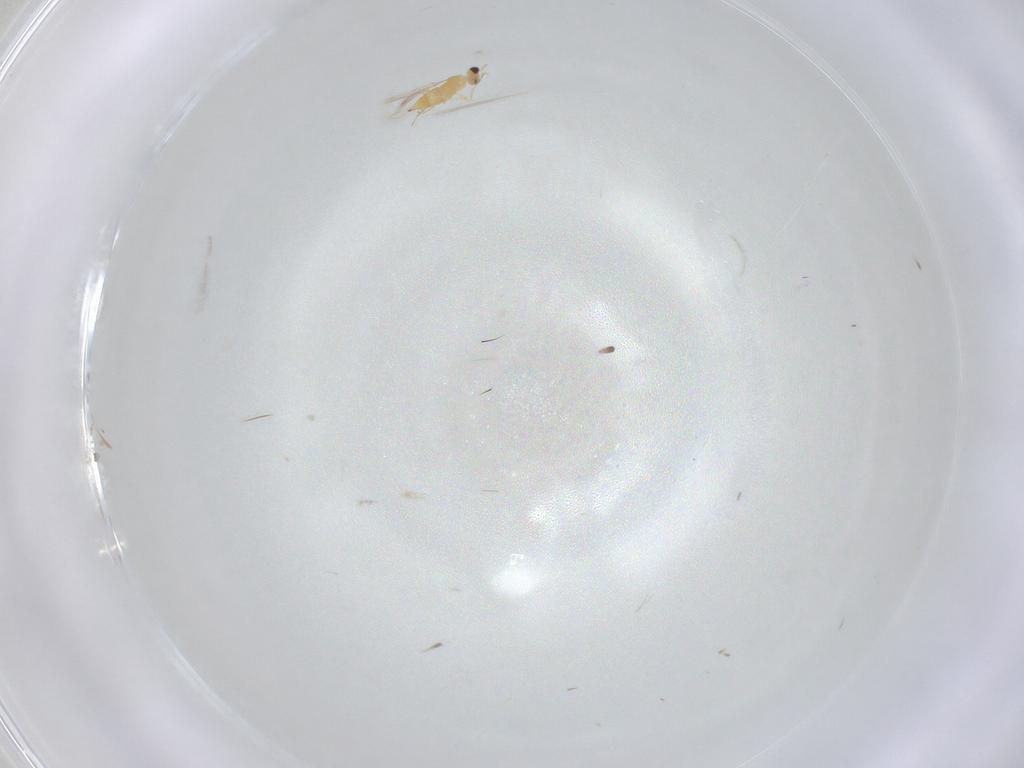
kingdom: Animalia
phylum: Arthropoda
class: Insecta
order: Hymenoptera
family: Mymaridae
